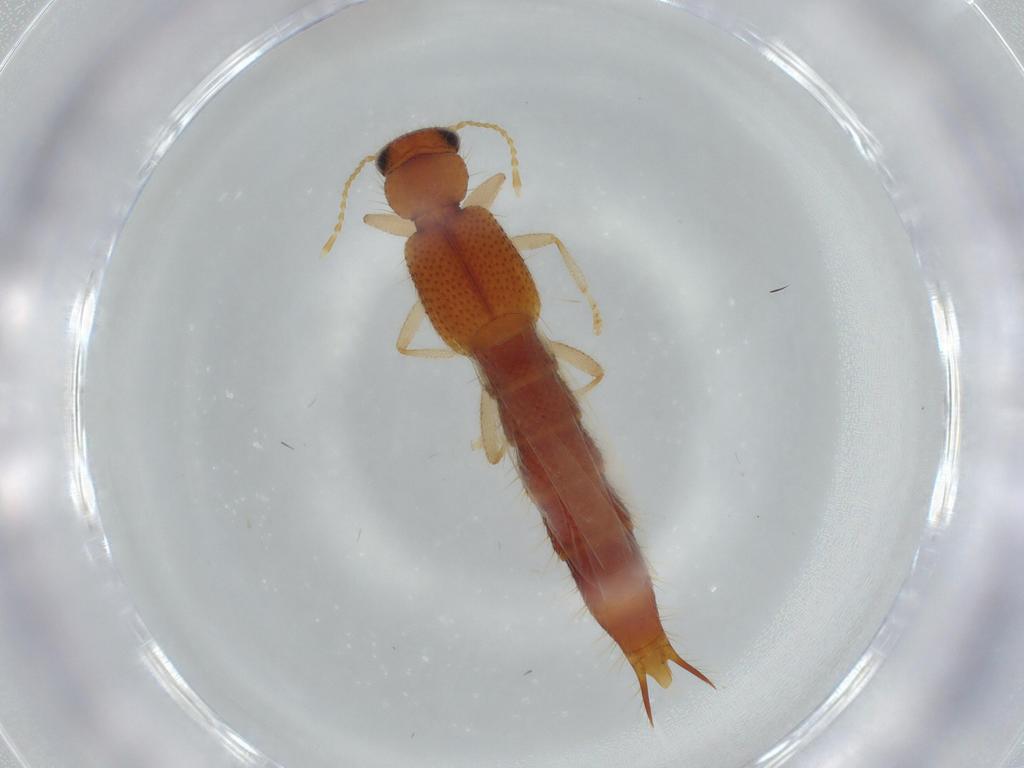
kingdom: Animalia
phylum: Arthropoda
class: Insecta
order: Coleoptera
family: Staphylinidae
